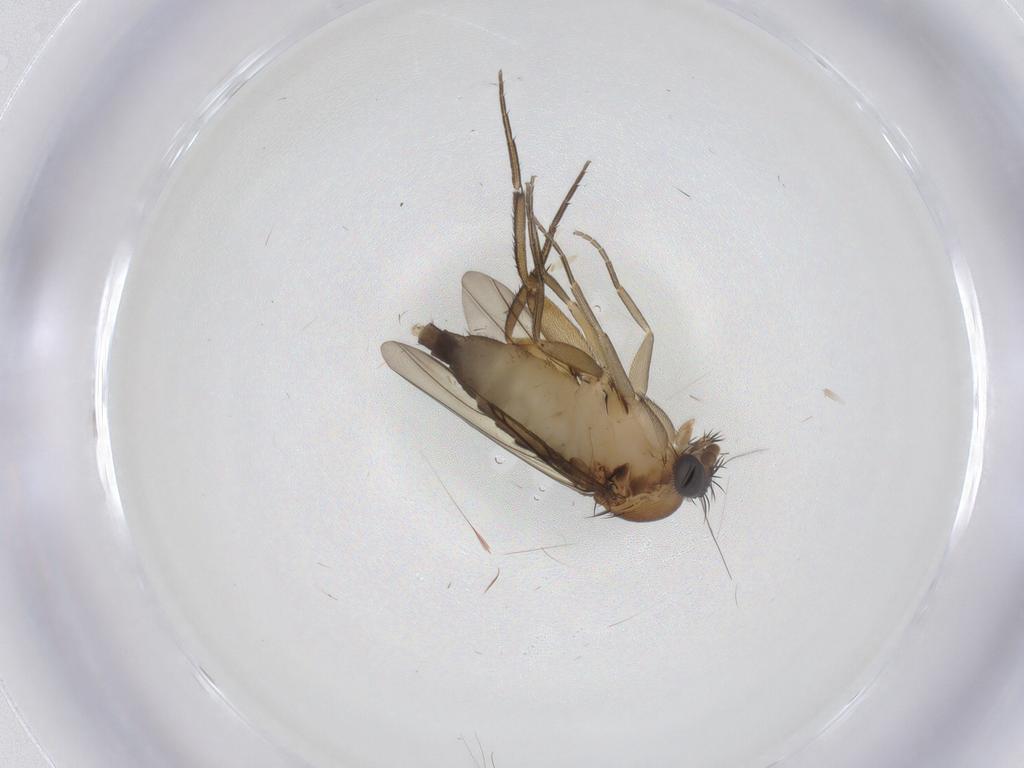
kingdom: Animalia
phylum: Arthropoda
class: Insecta
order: Diptera
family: Phoridae
